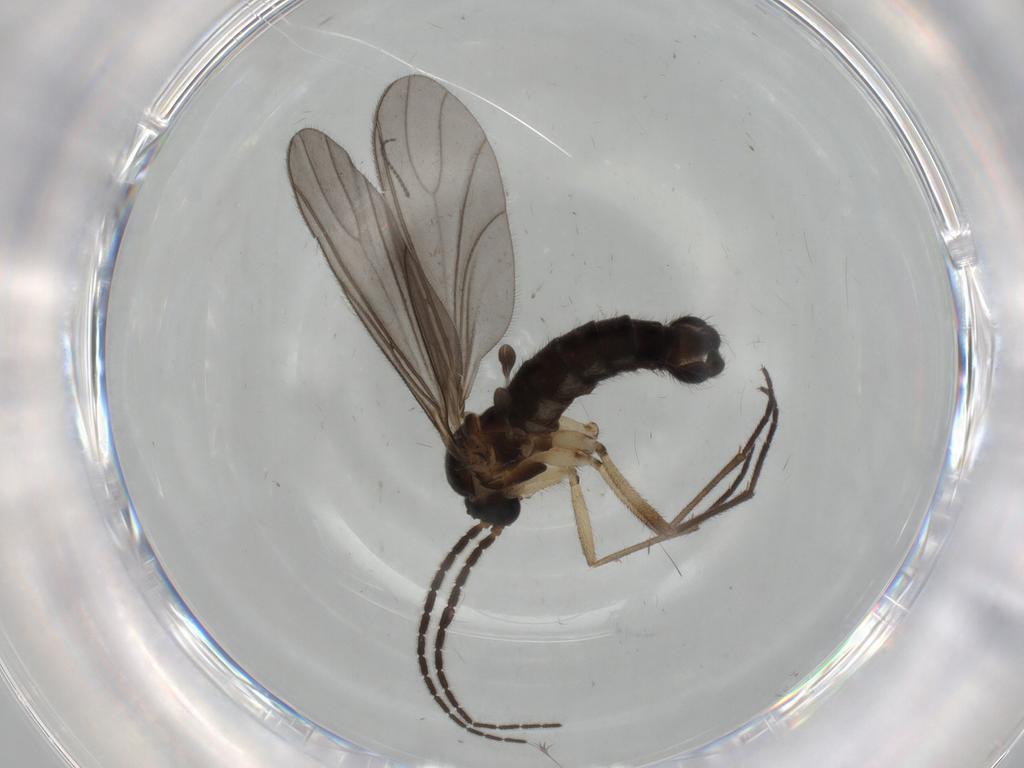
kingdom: Animalia
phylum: Arthropoda
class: Insecta
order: Diptera
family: Sciaridae
